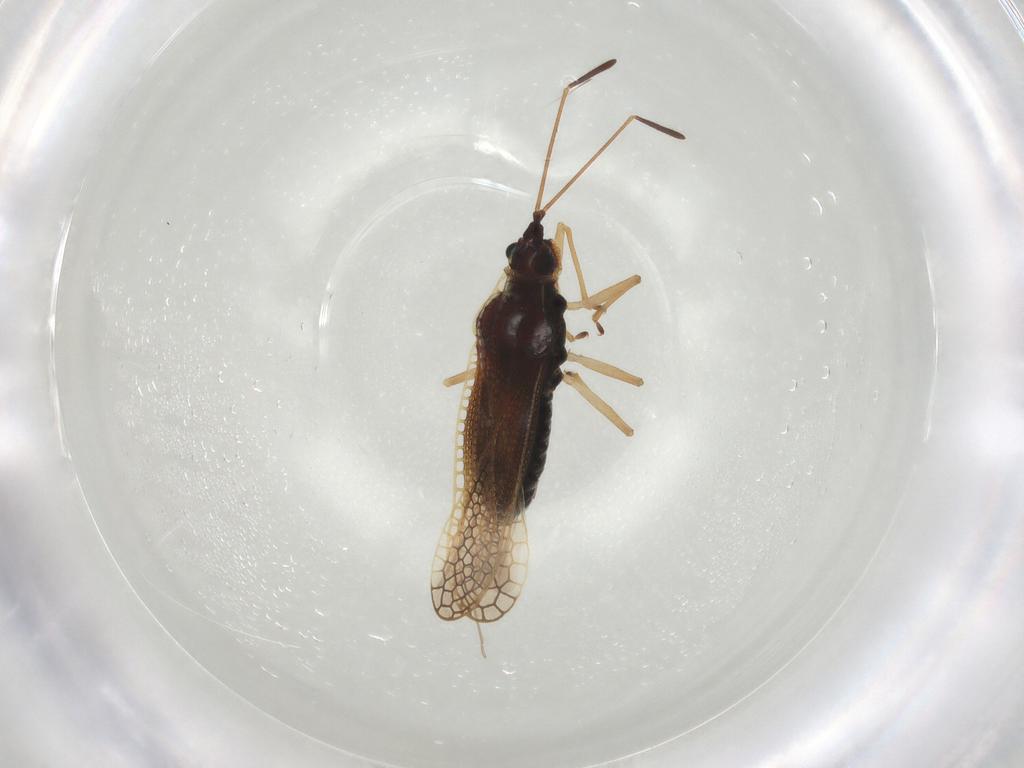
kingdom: Animalia
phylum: Arthropoda
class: Insecta
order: Hemiptera
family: Tingidae
